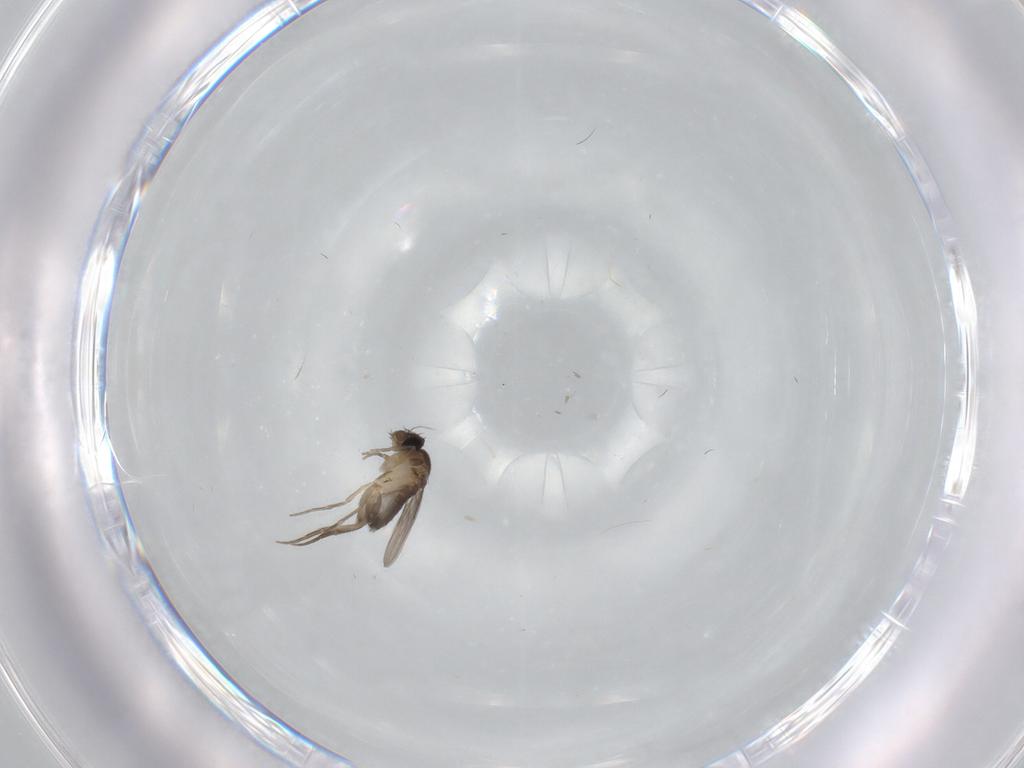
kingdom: Animalia
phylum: Arthropoda
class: Insecta
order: Diptera
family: Phoridae
